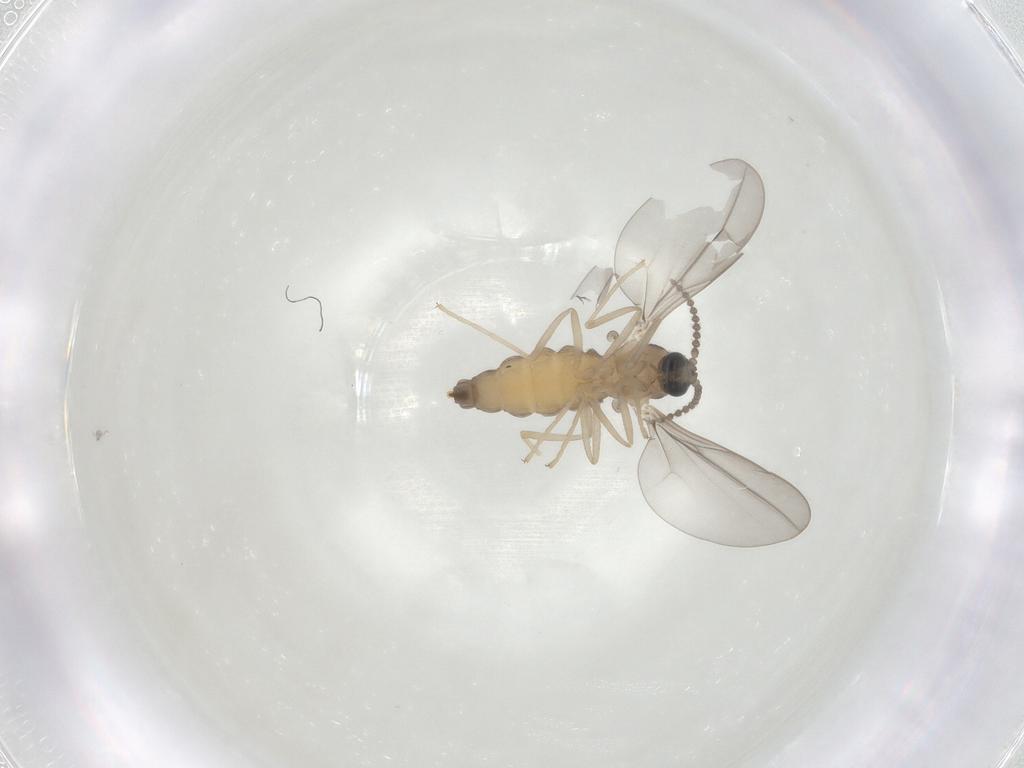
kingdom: Animalia
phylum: Arthropoda
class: Insecta
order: Diptera
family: Cecidomyiidae
